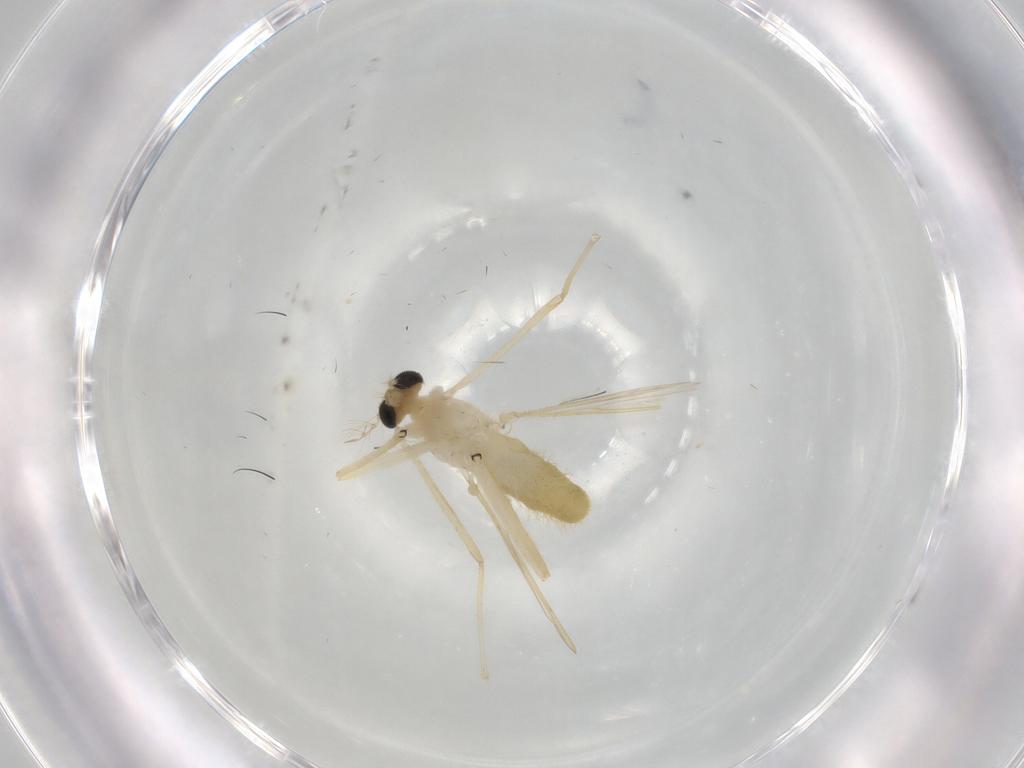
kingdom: Animalia
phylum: Arthropoda
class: Insecta
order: Diptera
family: Chironomidae
